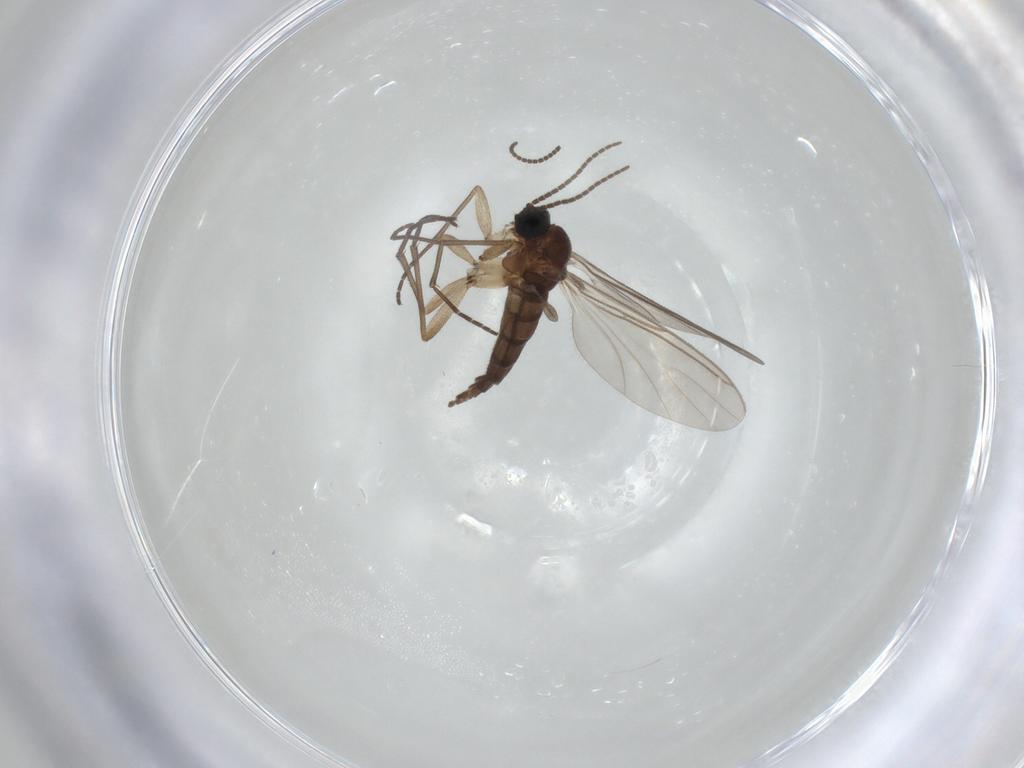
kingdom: Animalia
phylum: Arthropoda
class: Insecta
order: Diptera
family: Sciaridae
